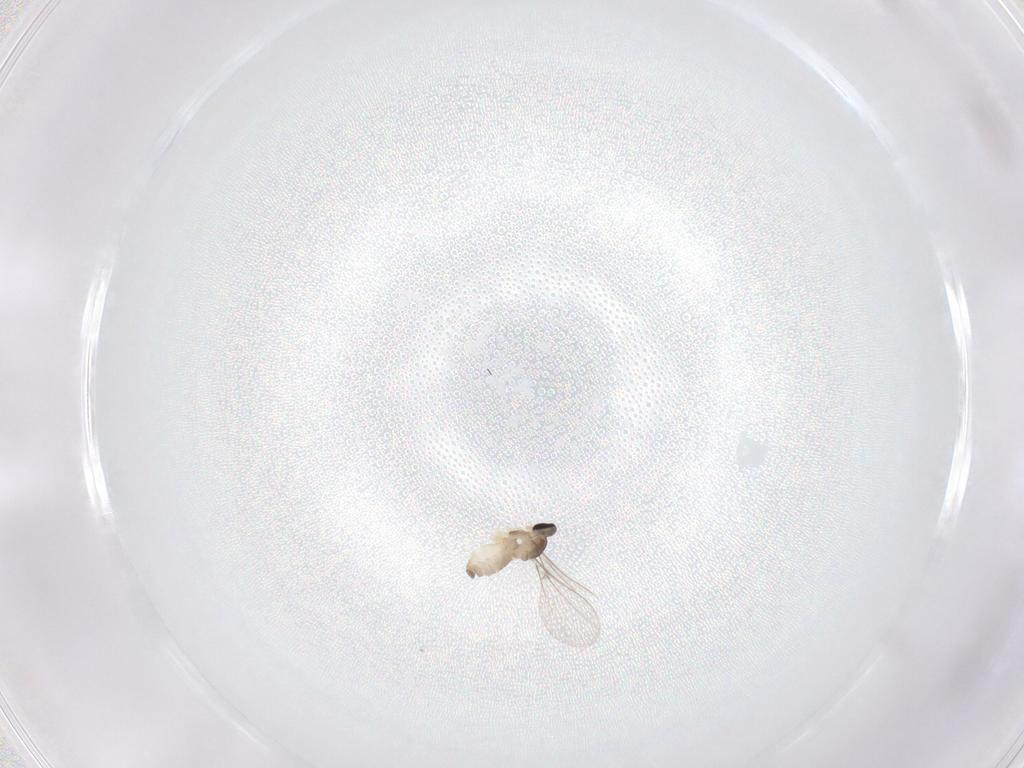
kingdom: Animalia
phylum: Arthropoda
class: Insecta
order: Diptera
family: Cecidomyiidae
